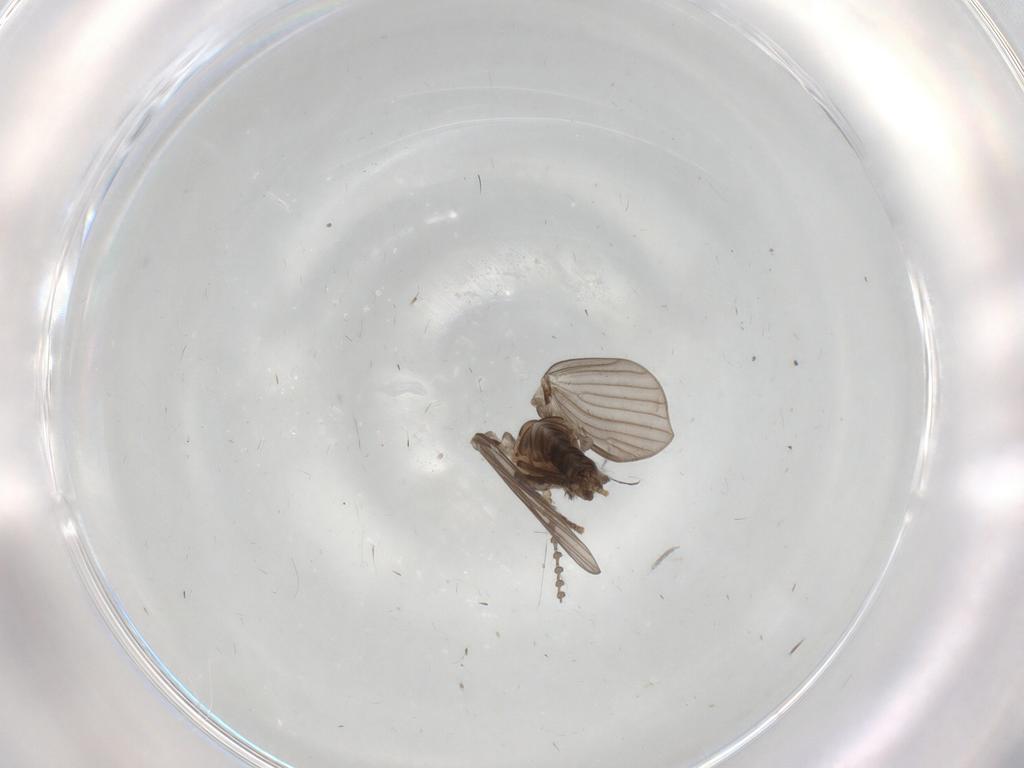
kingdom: Animalia
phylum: Arthropoda
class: Insecta
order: Diptera
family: Psychodidae
